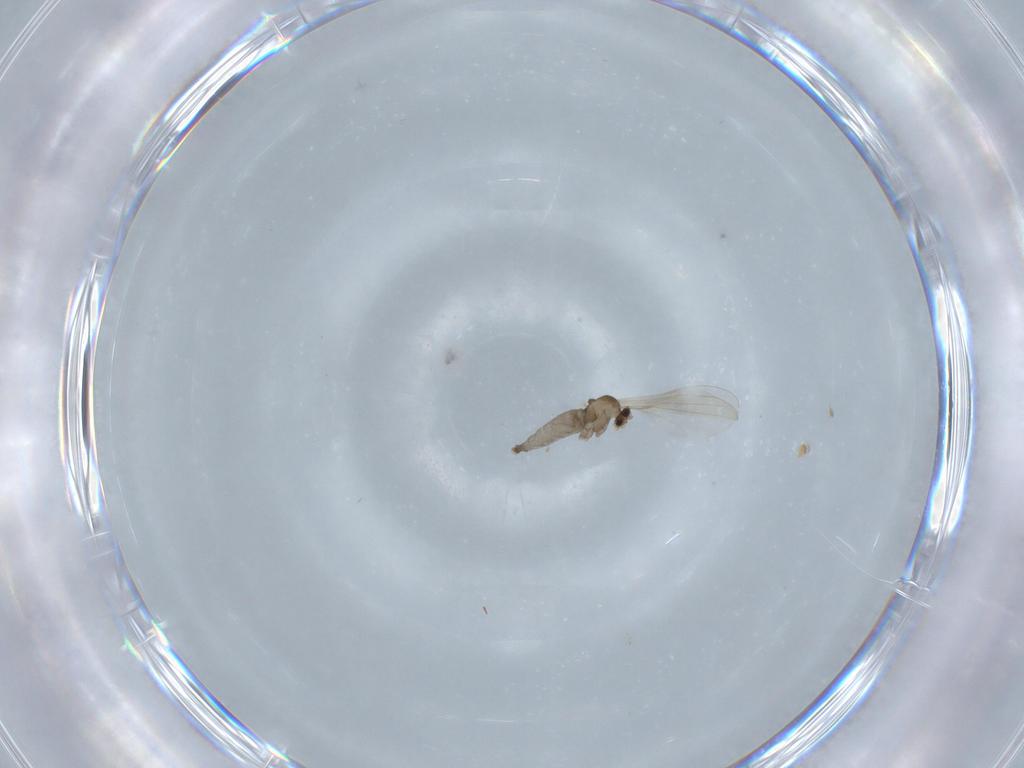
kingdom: Animalia
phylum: Arthropoda
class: Insecta
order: Diptera
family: Cecidomyiidae
